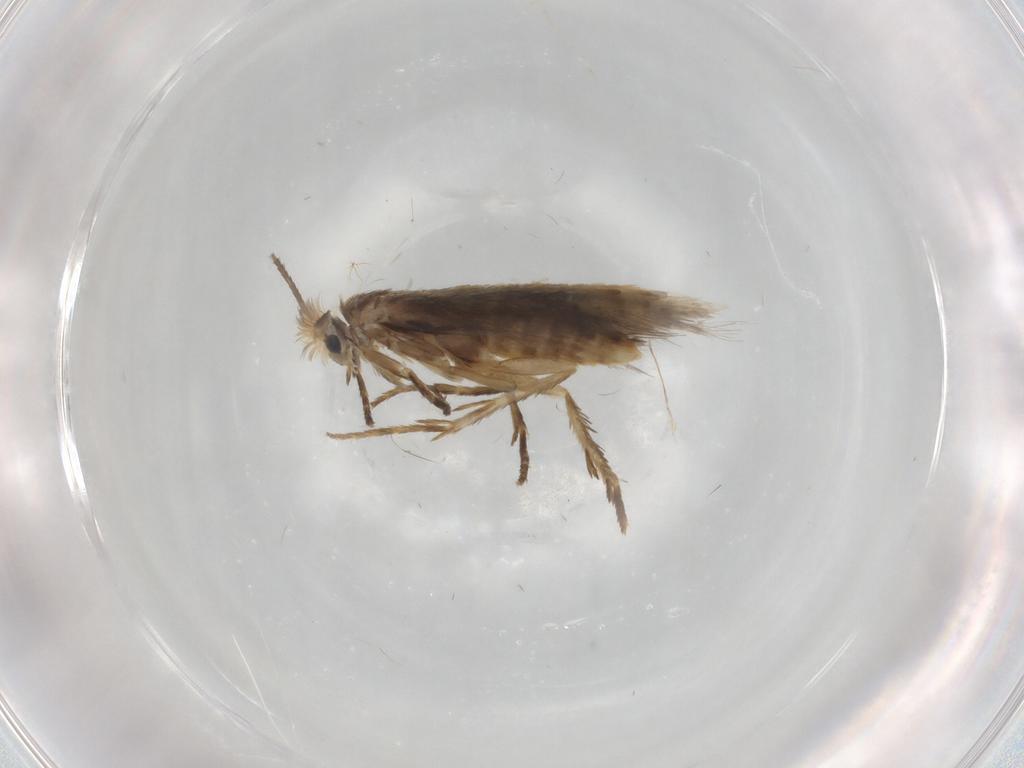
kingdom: Animalia
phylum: Arthropoda
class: Insecta
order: Lepidoptera
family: Nepticulidae
